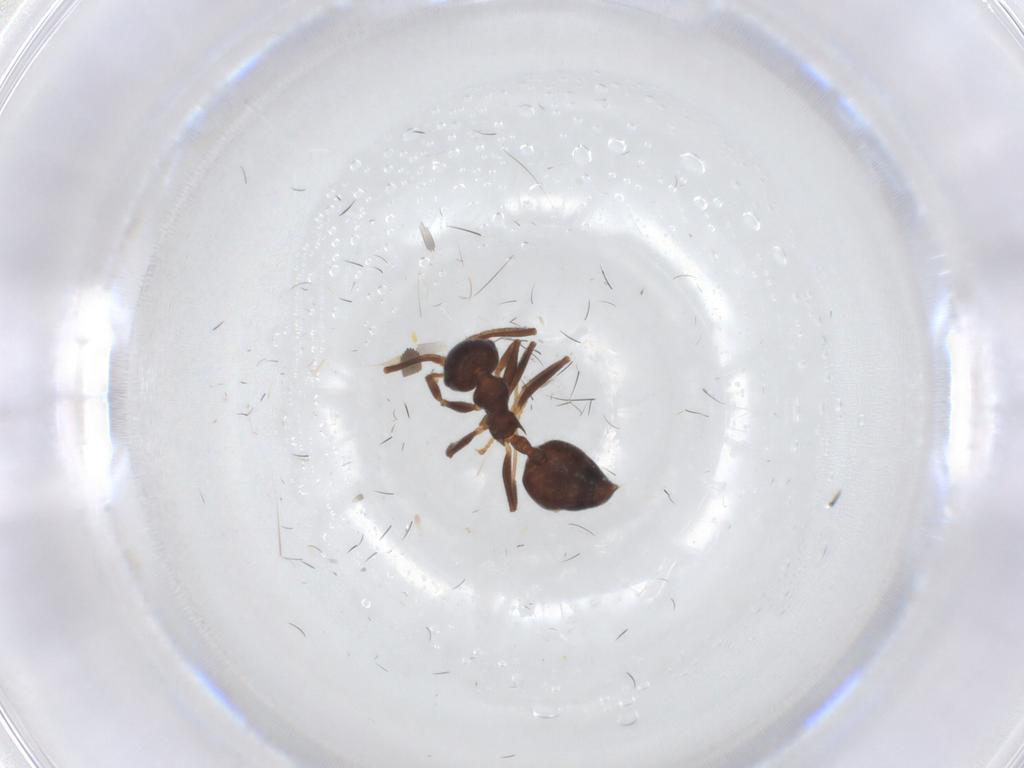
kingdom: Animalia
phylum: Arthropoda
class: Insecta
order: Hymenoptera
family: Formicidae
